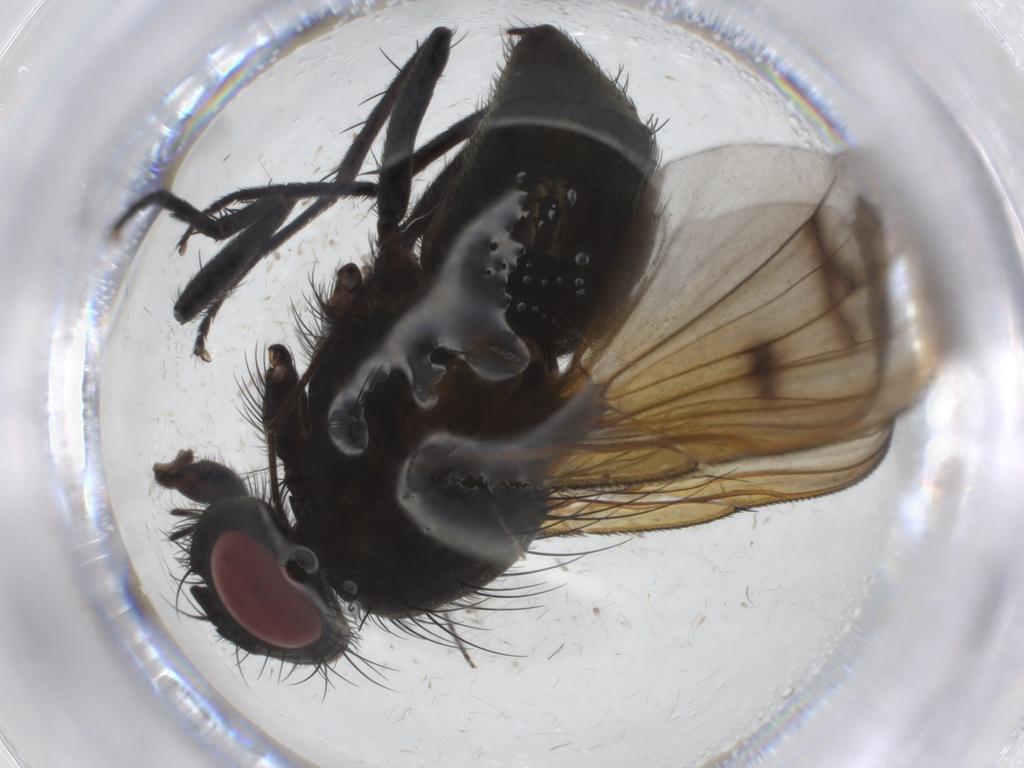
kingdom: Animalia
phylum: Arthropoda
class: Insecta
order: Diptera
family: Muscidae
